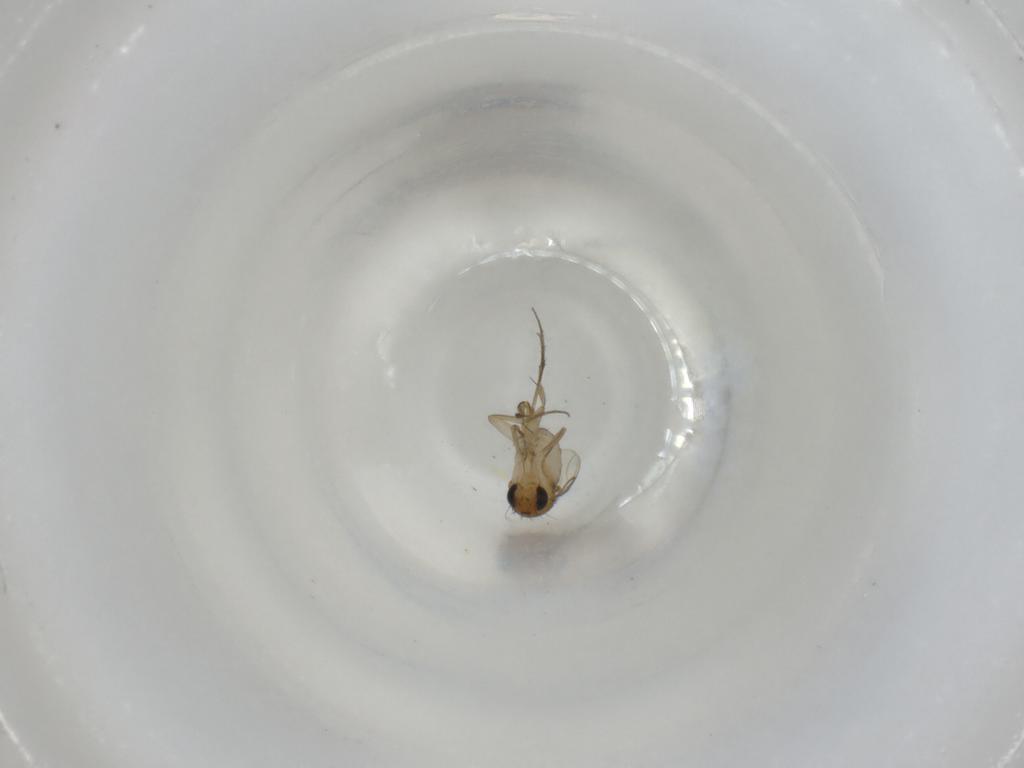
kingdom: Animalia
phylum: Arthropoda
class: Insecta
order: Diptera
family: Phoridae
